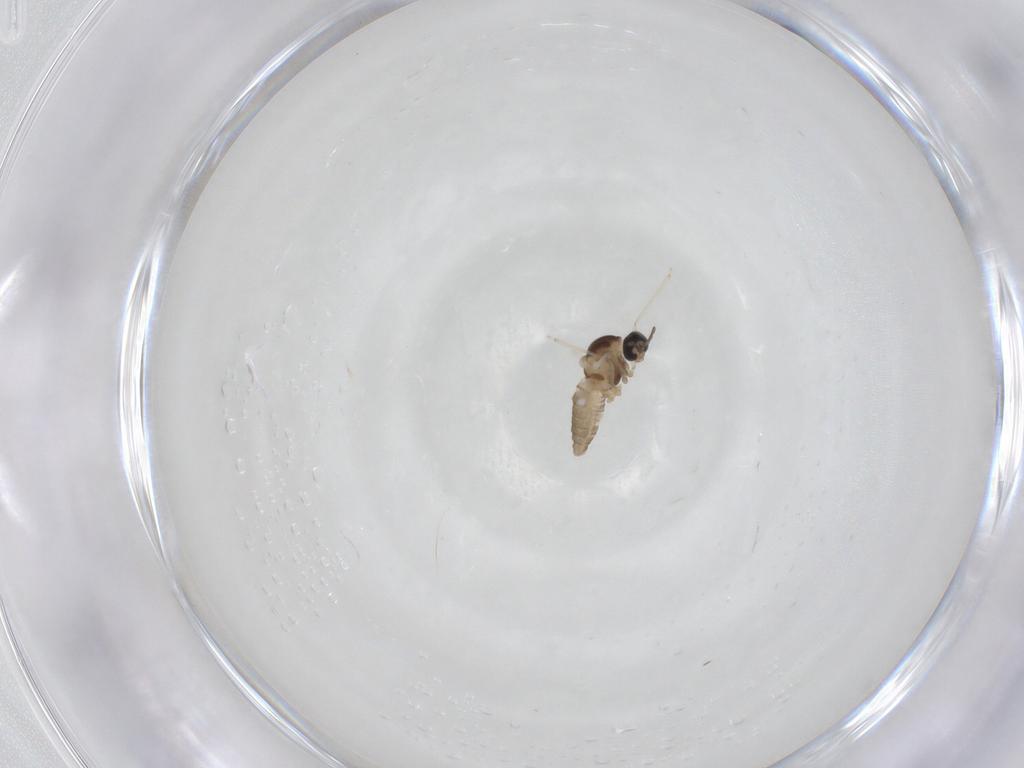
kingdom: Animalia
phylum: Arthropoda
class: Insecta
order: Diptera
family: Cecidomyiidae
